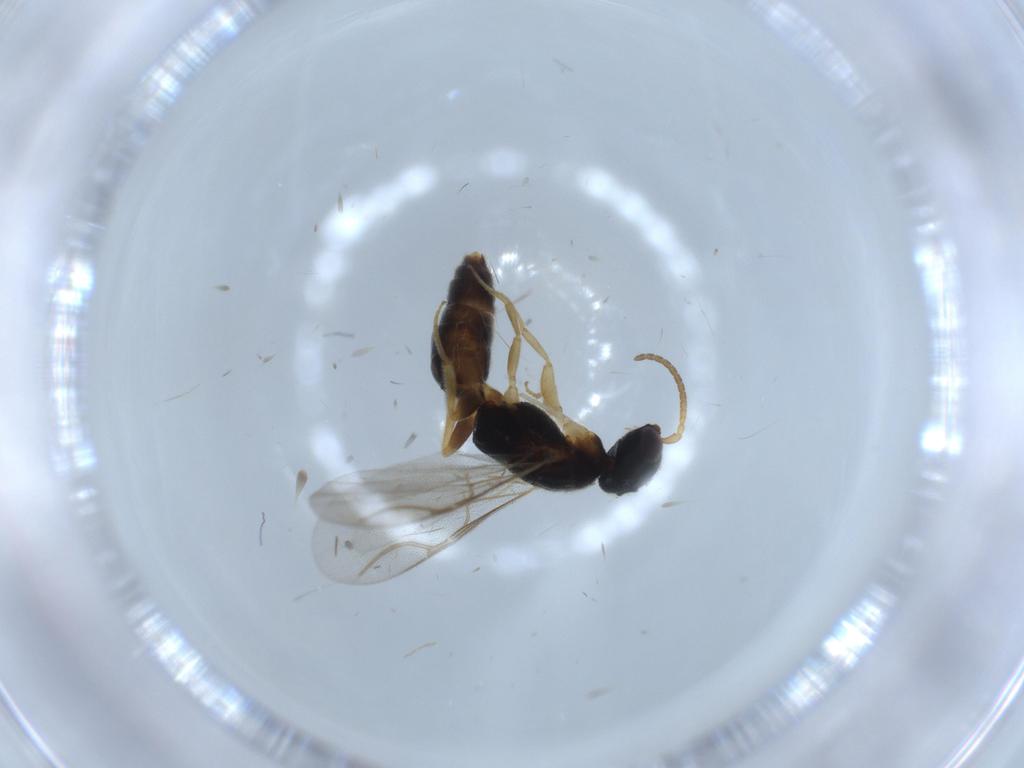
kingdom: Animalia
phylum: Arthropoda
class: Insecta
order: Hymenoptera
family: Bethylidae
